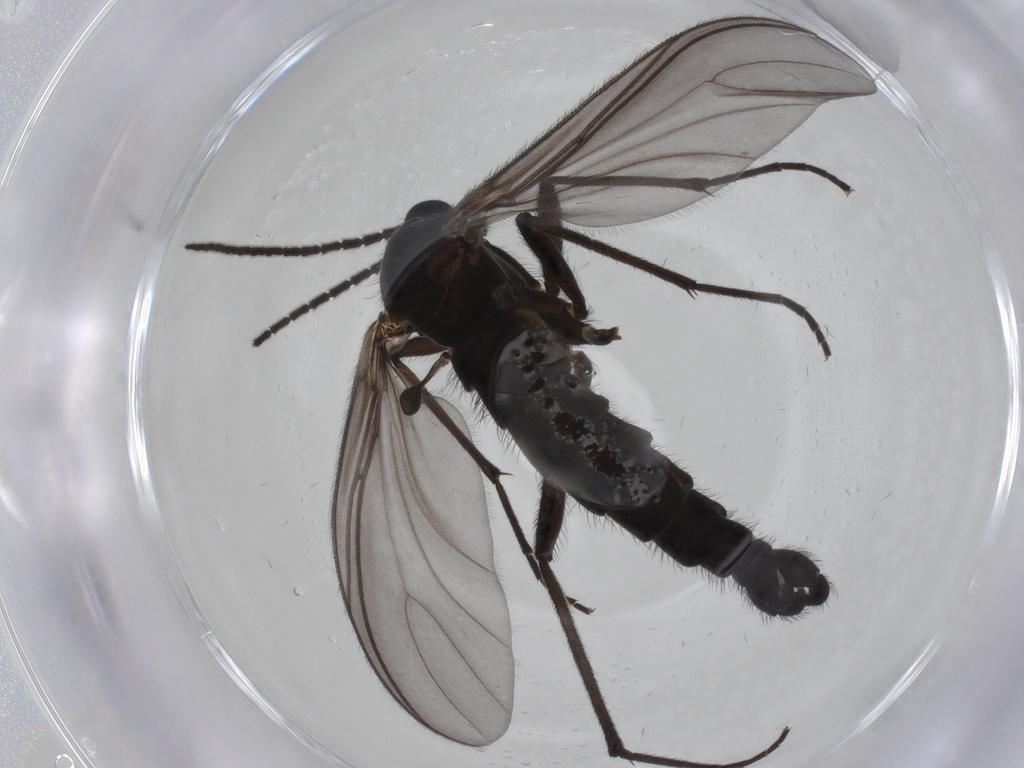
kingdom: Animalia
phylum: Arthropoda
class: Insecta
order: Diptera
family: Sciaridae
